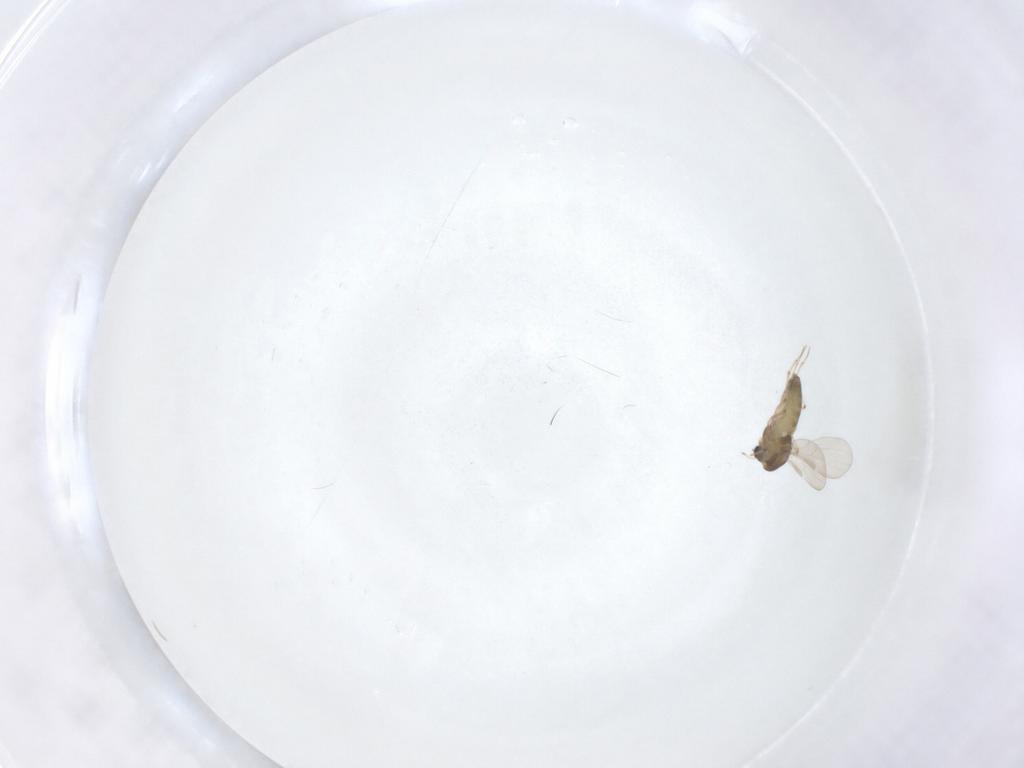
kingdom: Animalia
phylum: Arthropoda
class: Insecta
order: Diptera
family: Chironomidae
